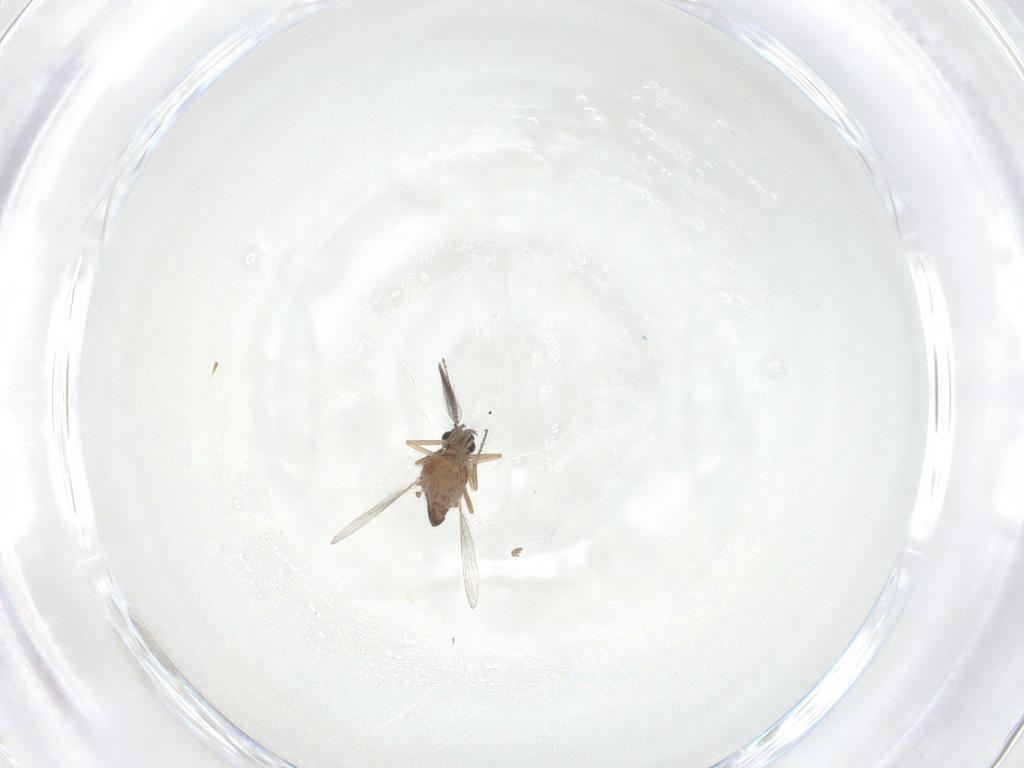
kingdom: Animalia
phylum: Arthropoda
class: Insecta
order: Diptera
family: Ceratopogonidae
